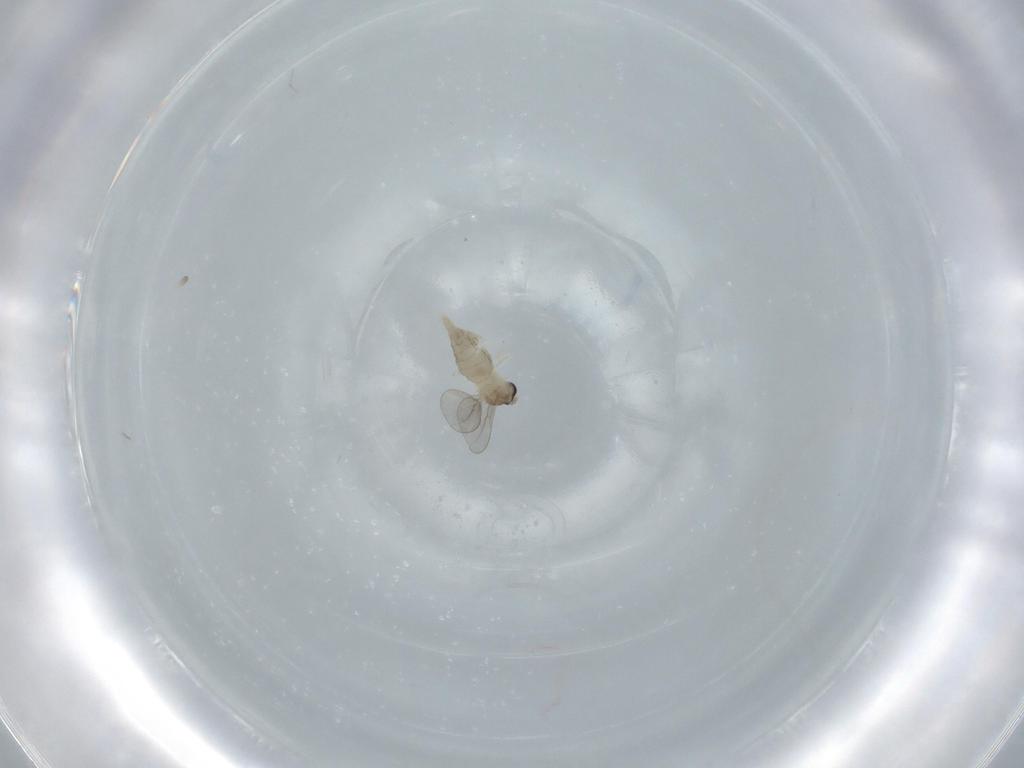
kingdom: Animalia
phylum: Arthropoda
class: Insecta
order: Diptera
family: Cecidomyiidae
